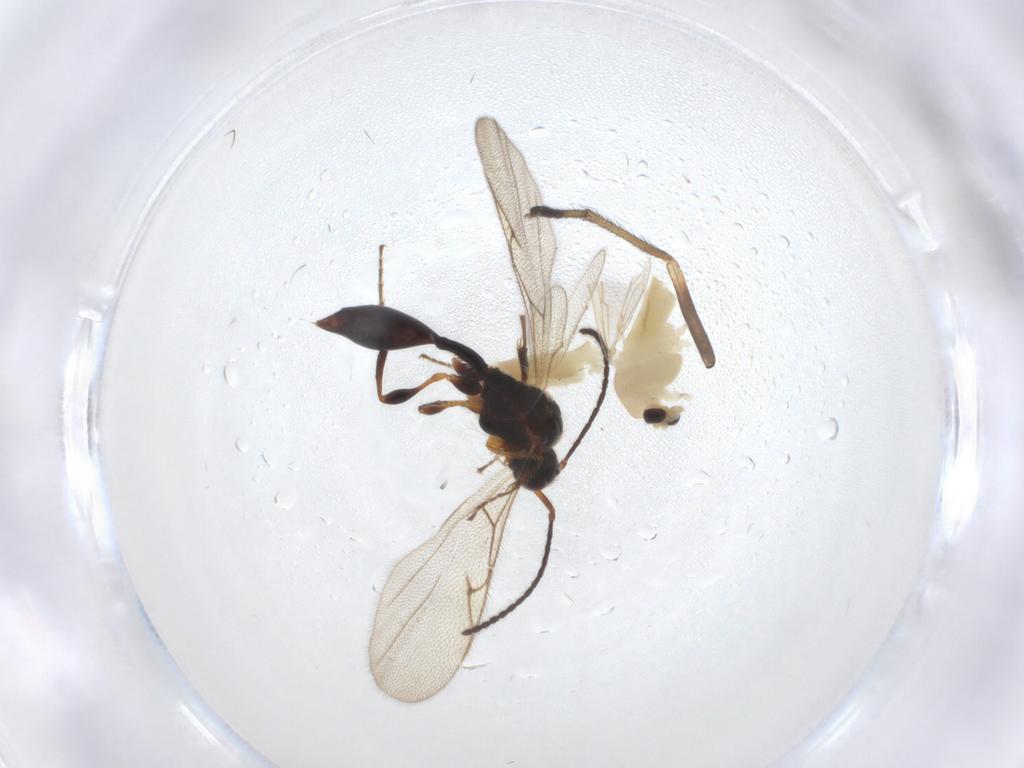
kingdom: Animalia
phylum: Arthropoda
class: Insecta
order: Diptera
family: Chironomidae
